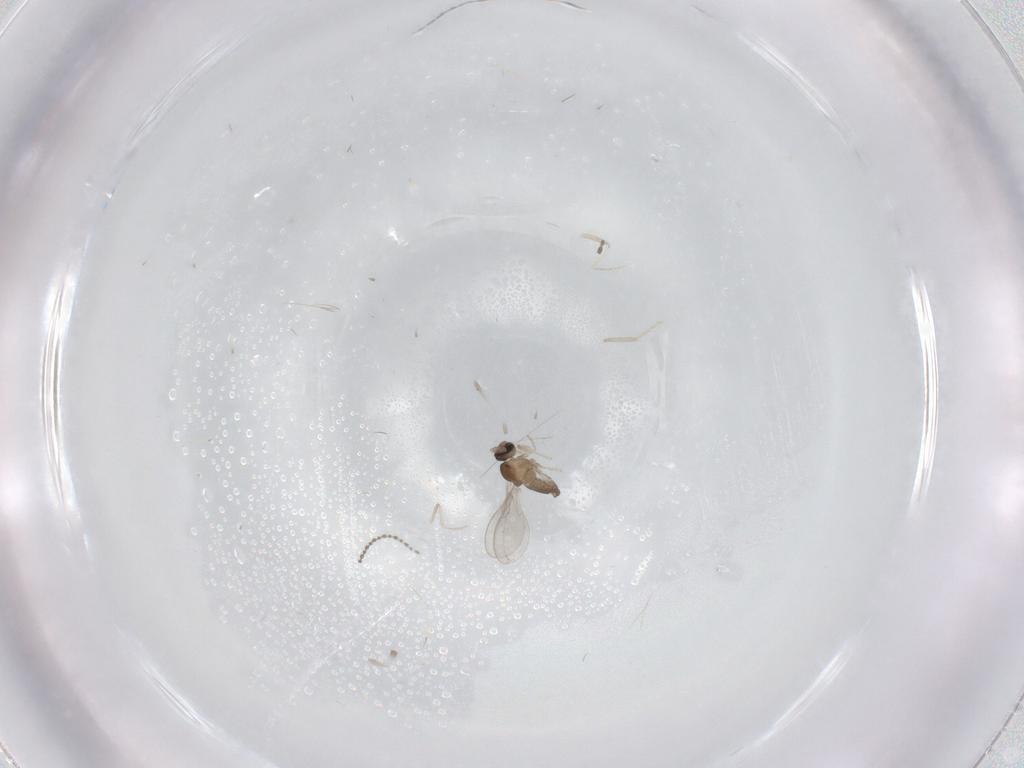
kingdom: Animalia
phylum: Arthropoda
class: Insecta
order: Diptera
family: Cecidomyiidae
